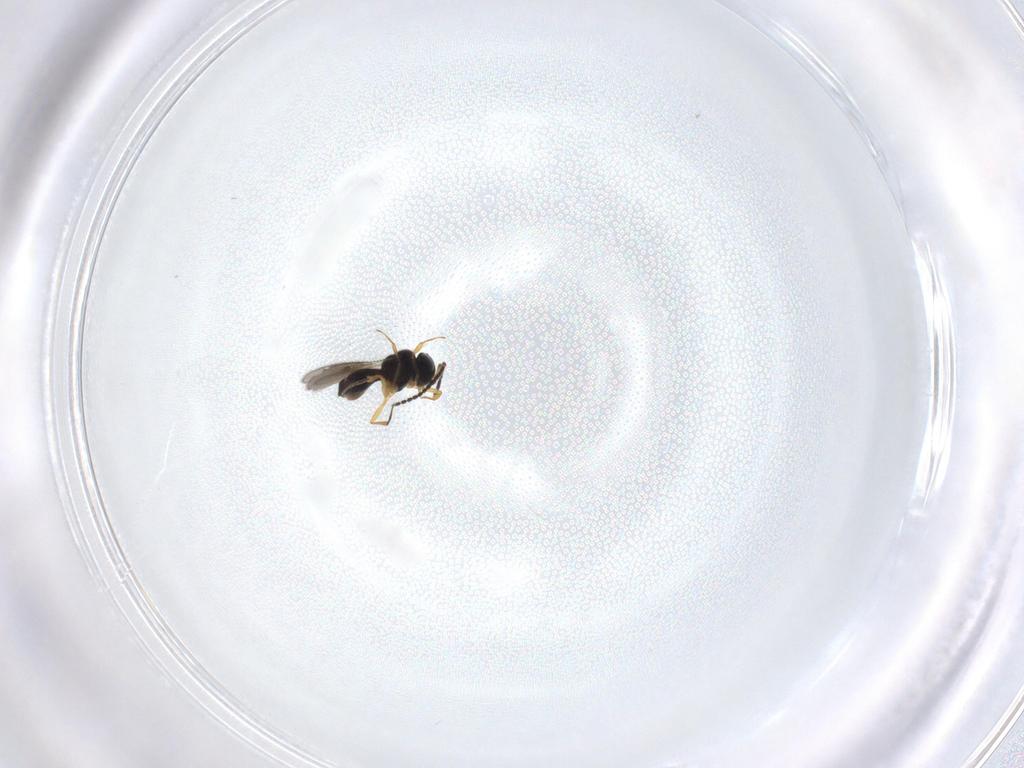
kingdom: Animalia
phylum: Arthropoda
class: Insecta
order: Hymenoptera
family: Scelionidae
